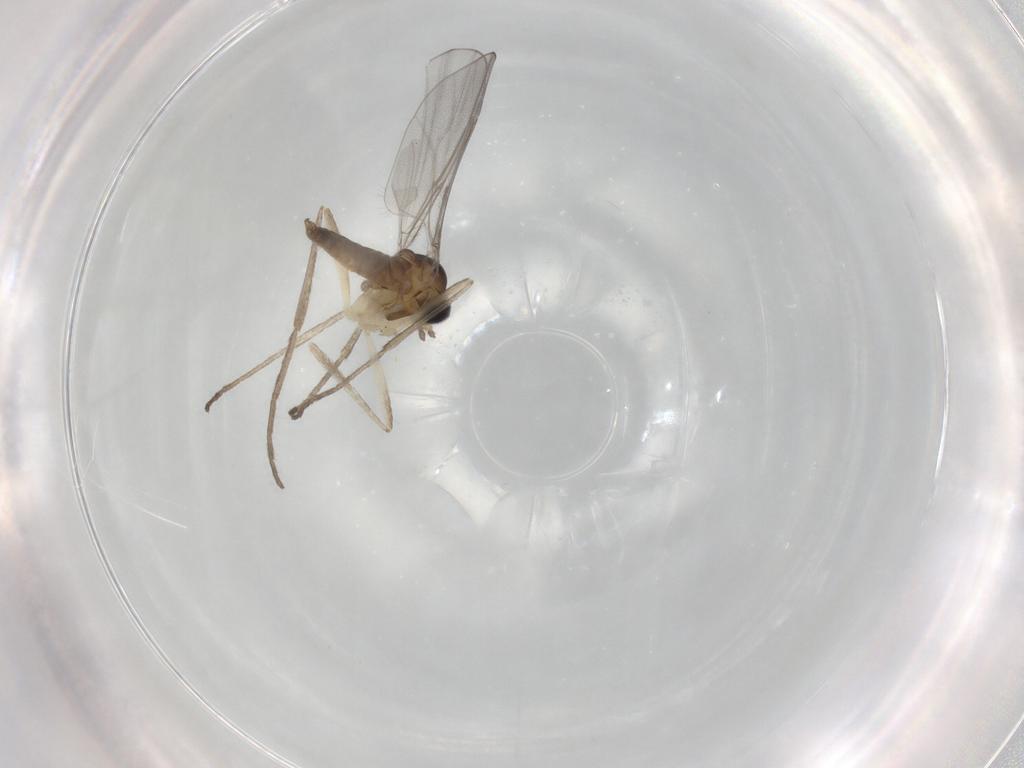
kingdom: Animalia
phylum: Arthropoda
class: Insecta
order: Diptera
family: Cecidomyiidae
